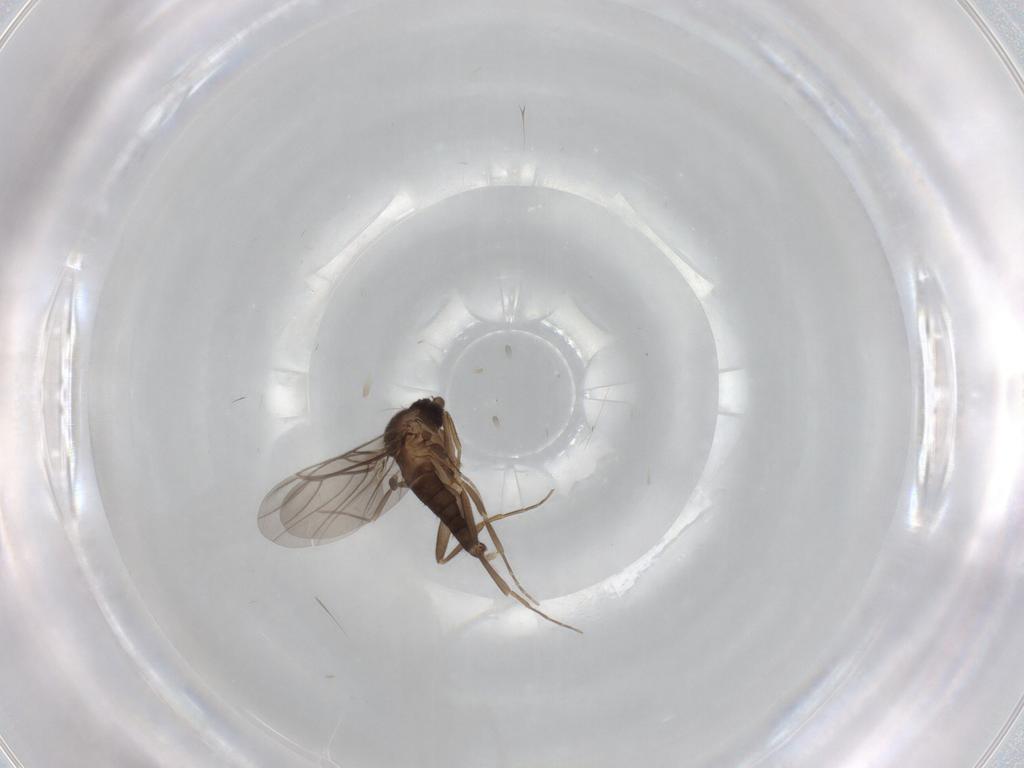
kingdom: Animalia
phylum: Arthropoda
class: Insecta
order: Diptera
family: Phoridae
